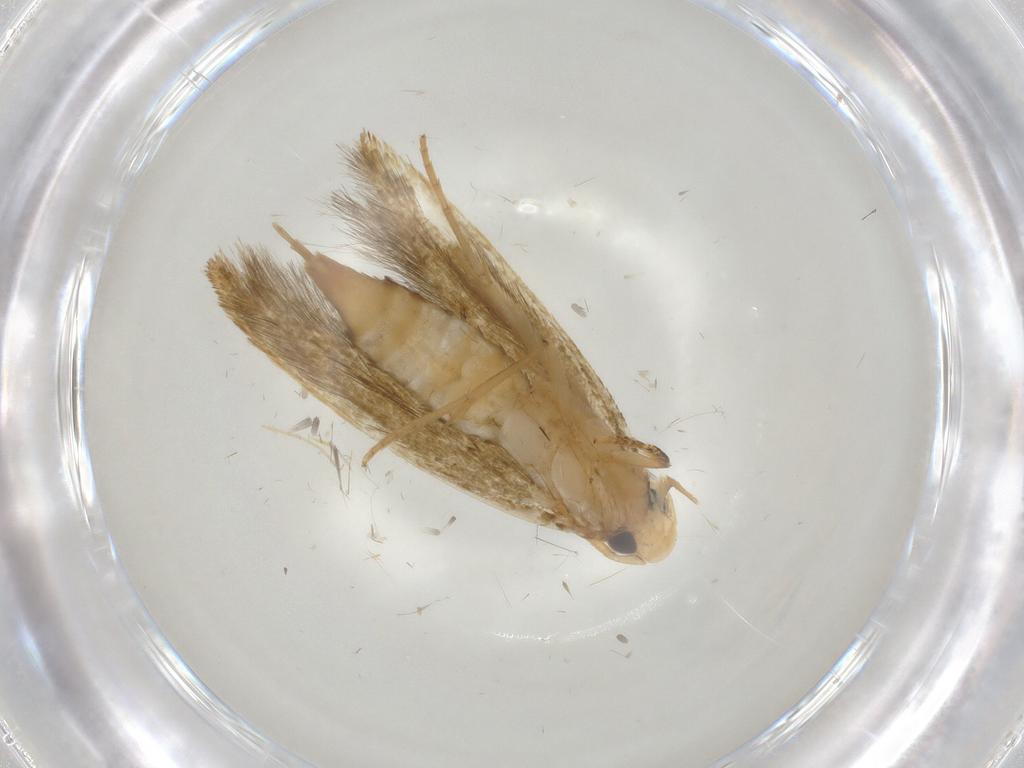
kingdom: Animalia
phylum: Arthropoda
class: Insecta
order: Lepidoptera
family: Tineidae
